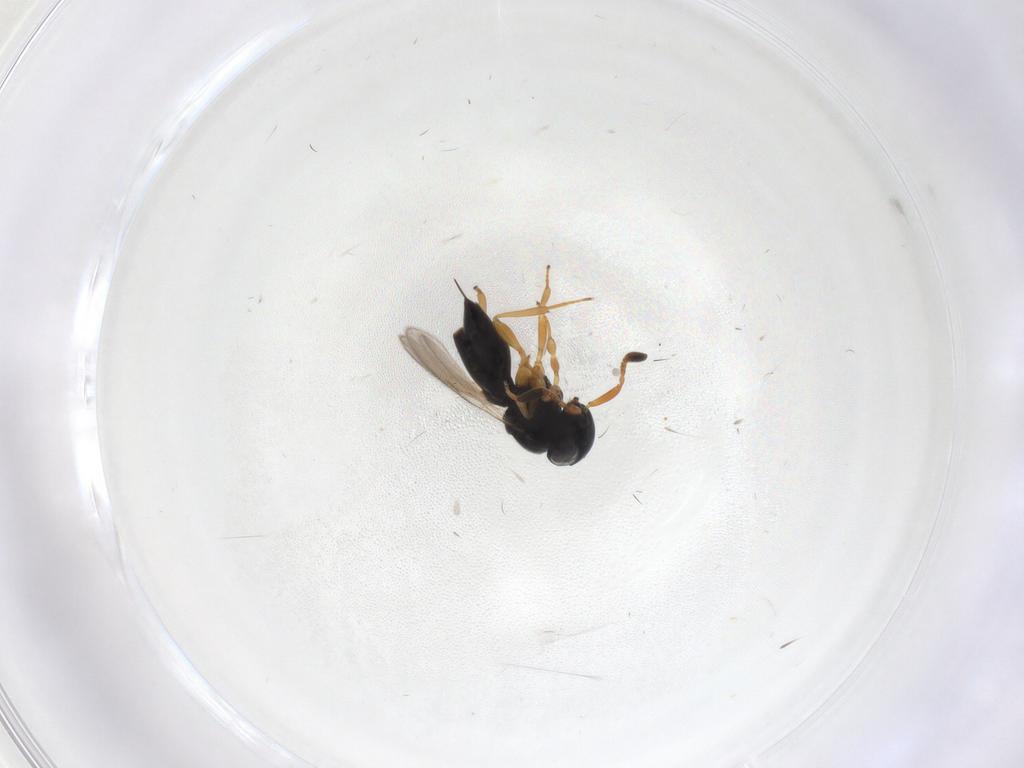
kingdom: Animalia
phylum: Arthropoda
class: Insecta
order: Hymenoptera
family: Scelionidae
